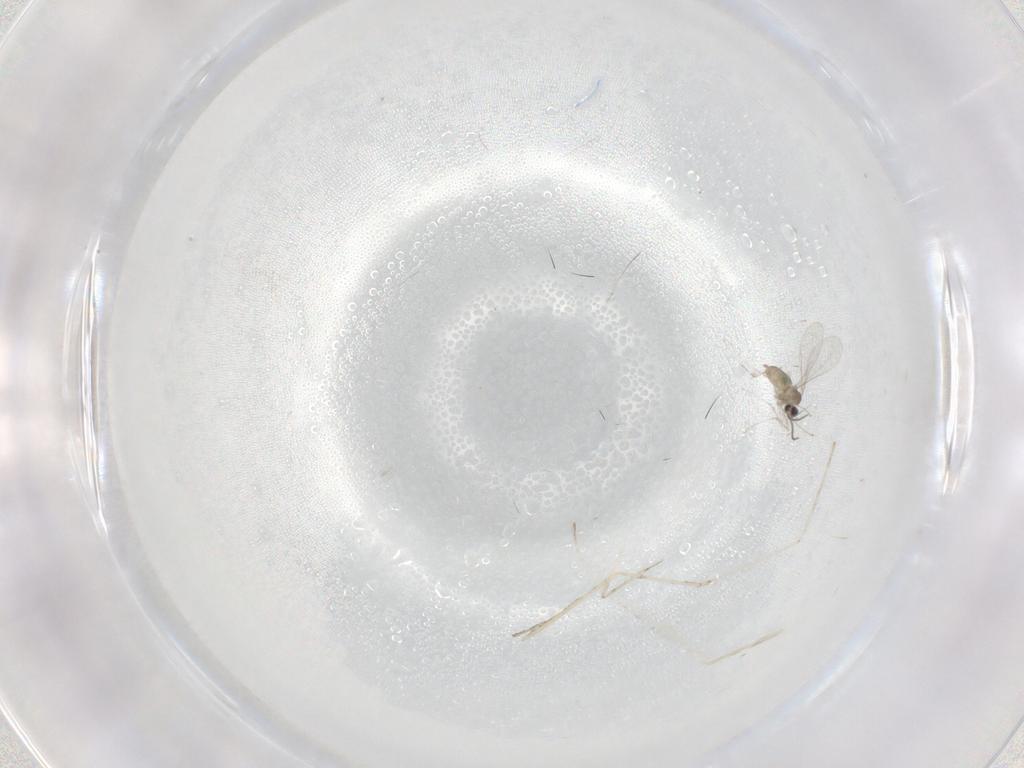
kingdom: Animalia
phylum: Arthropoda
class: Insecta
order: Diptera
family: Cecidomyiidae
